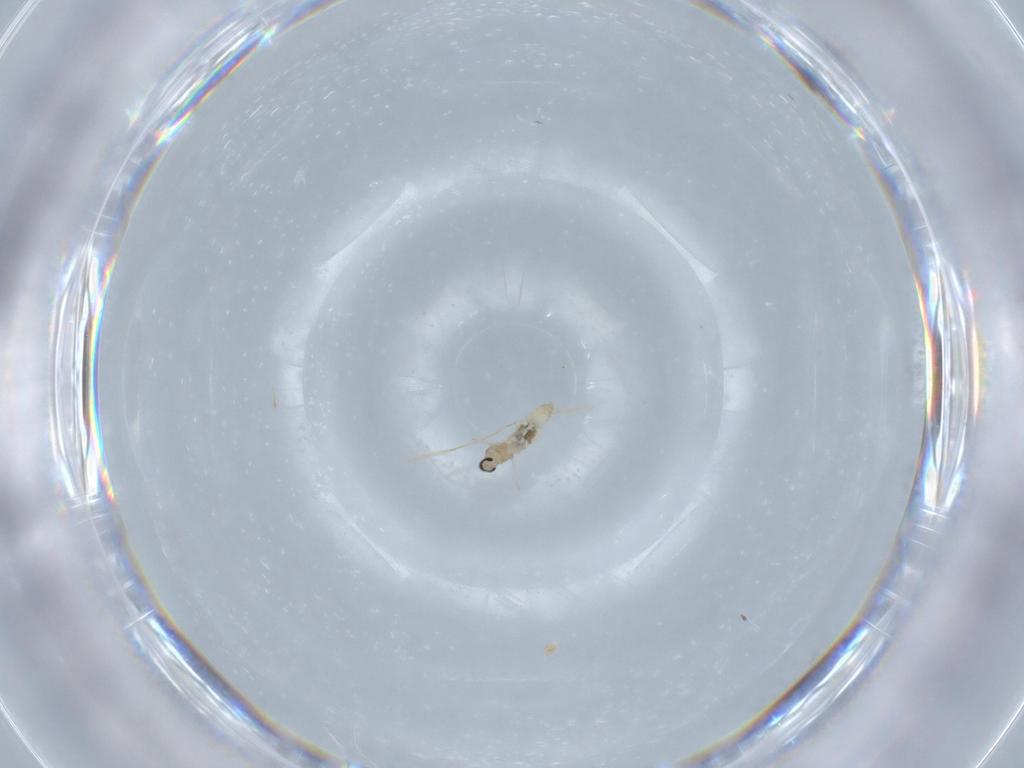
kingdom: Animalia
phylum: Arthropoda
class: Insecta
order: Diptera
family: Cecidomyiidae
